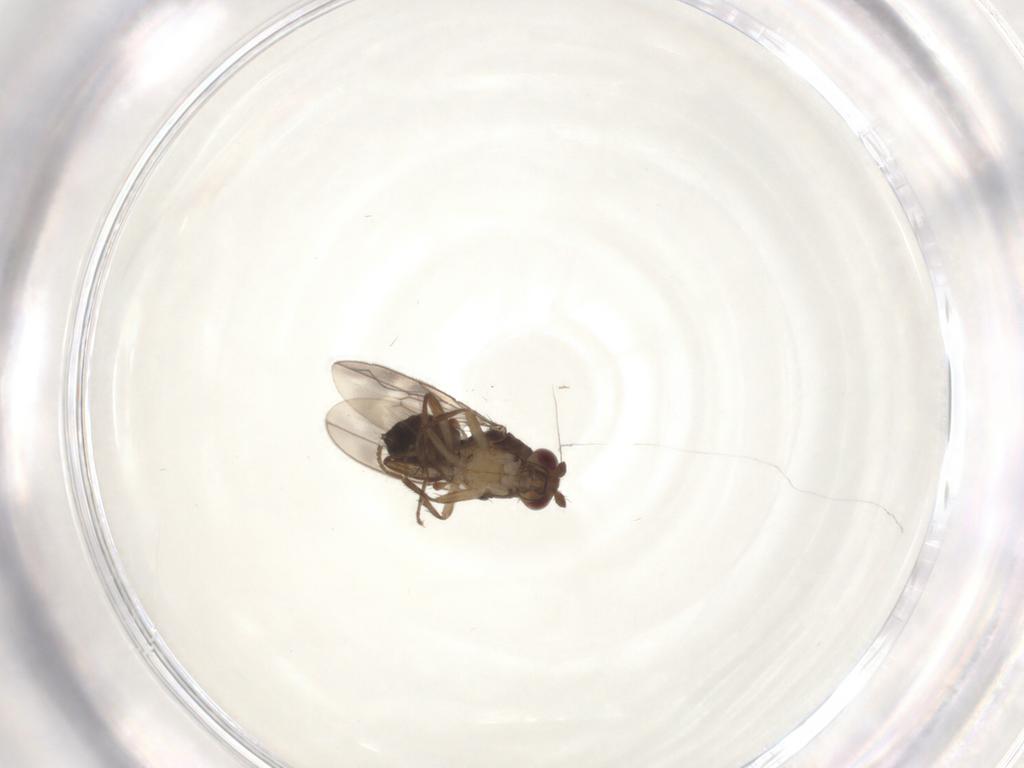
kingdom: Animalia
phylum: Arthropoda
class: Insecta
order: Diptera
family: Sphaeroceridae
